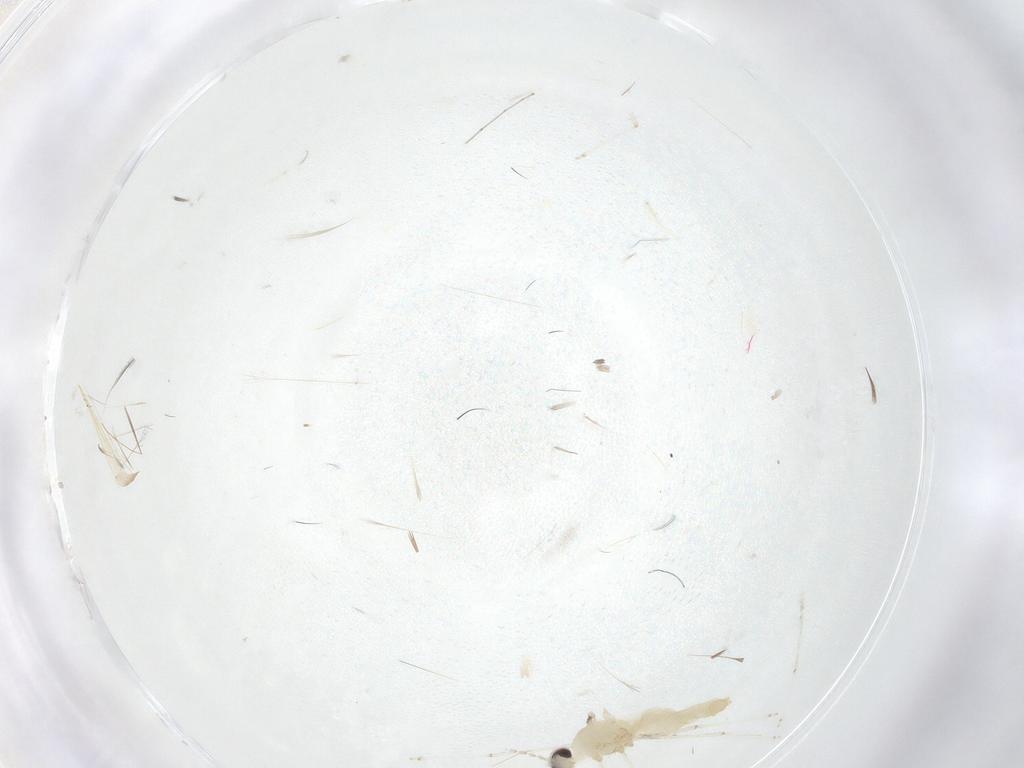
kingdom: Animalia
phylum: Arthropoda
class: Insecta
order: Diptera
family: Cecidomyiidae
